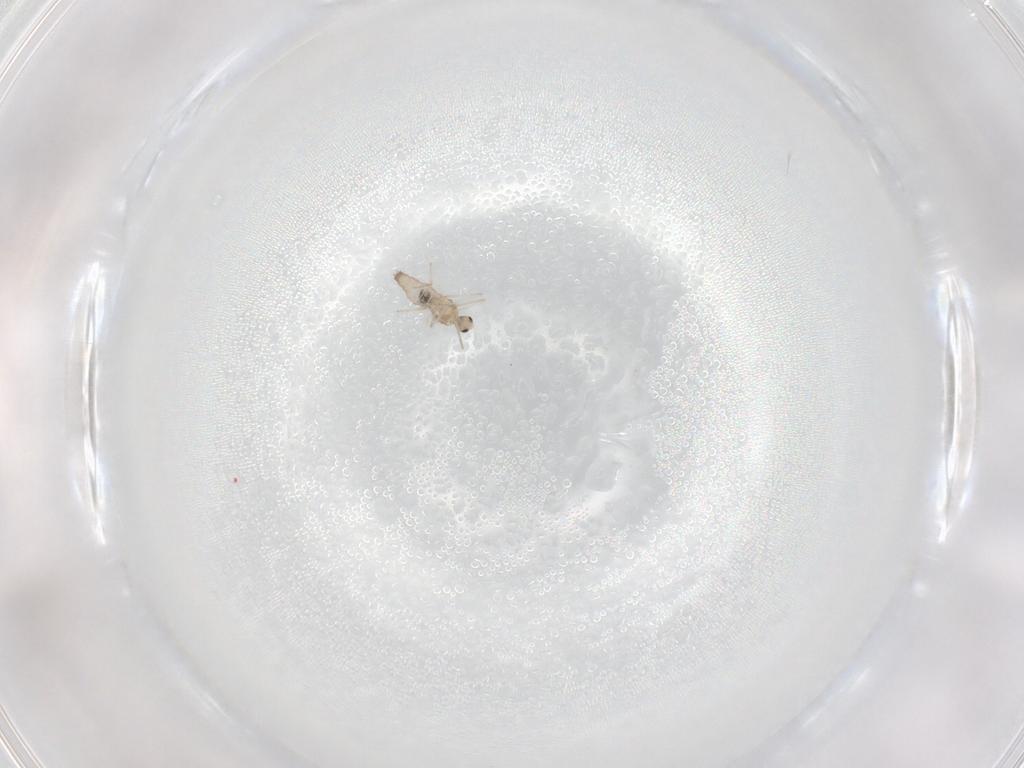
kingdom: Animalia
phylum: Arthropoda
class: Insecta
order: Diptera
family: Cecidomyiidae
